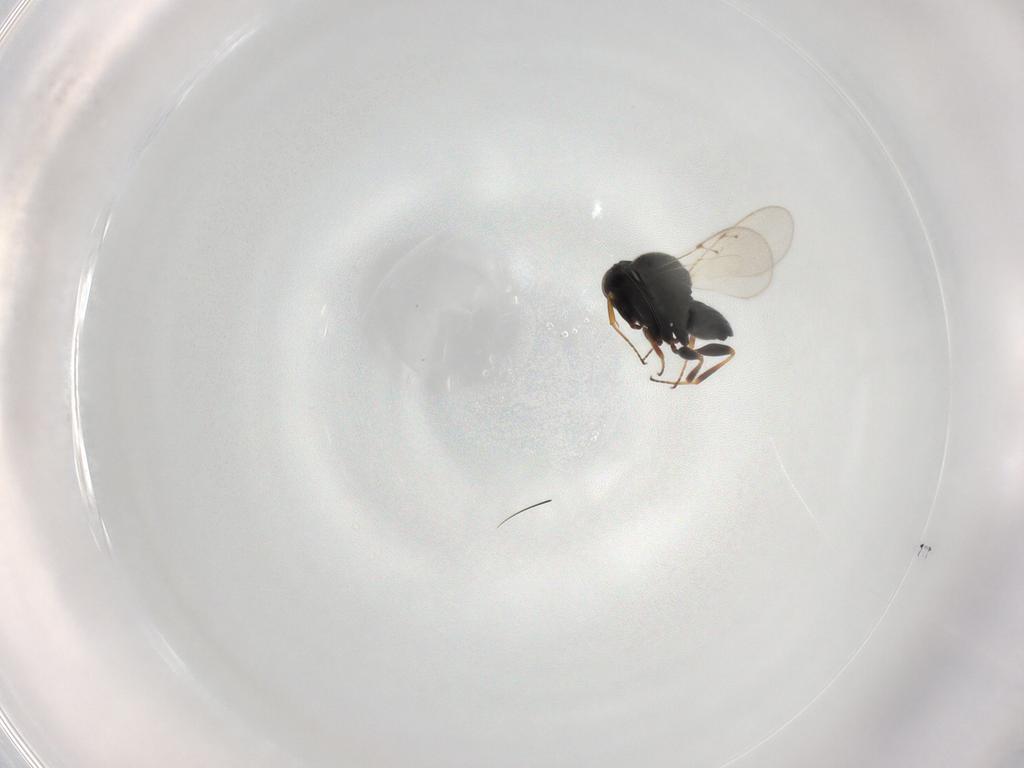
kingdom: Animalia
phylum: Arthropoda
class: Insecta
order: Hymenoptera
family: Scelionidae
